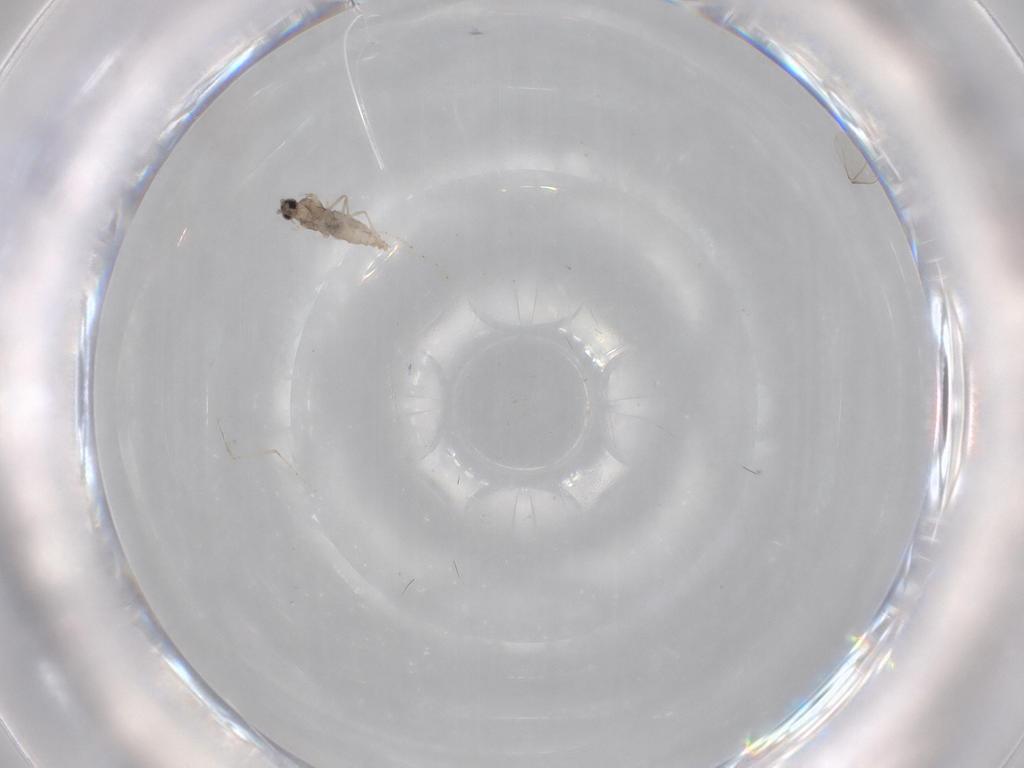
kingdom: Animalia
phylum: Arthropoda
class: Insecta
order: Diptera
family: Cecidomyiidae
